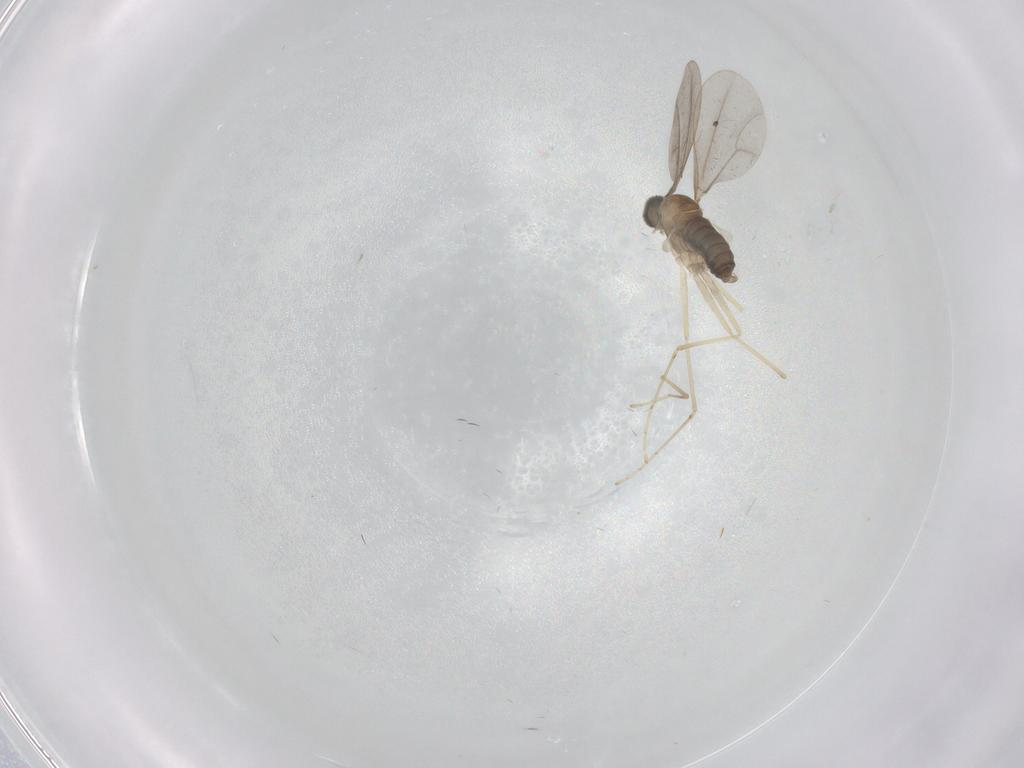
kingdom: Animalia
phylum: Arthropoda
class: Insecta
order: Diptera
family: Cecidomyiidae
